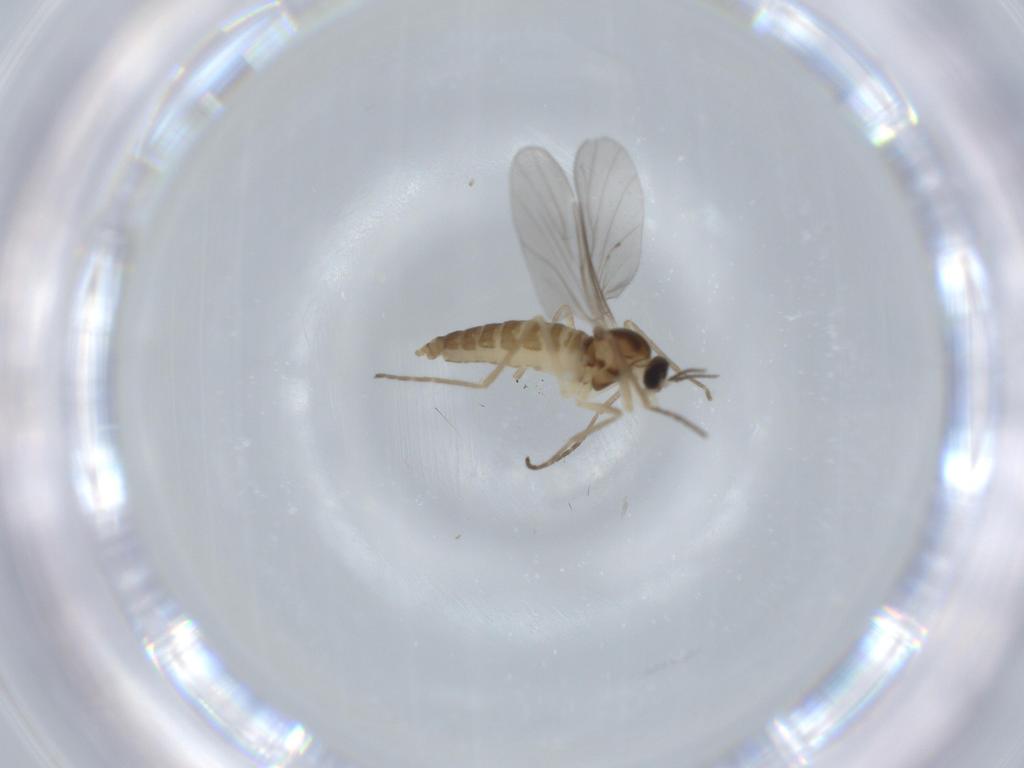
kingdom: Animalia
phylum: Arthropoda
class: Insecta
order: Diptera
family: Cecidomyiidae
